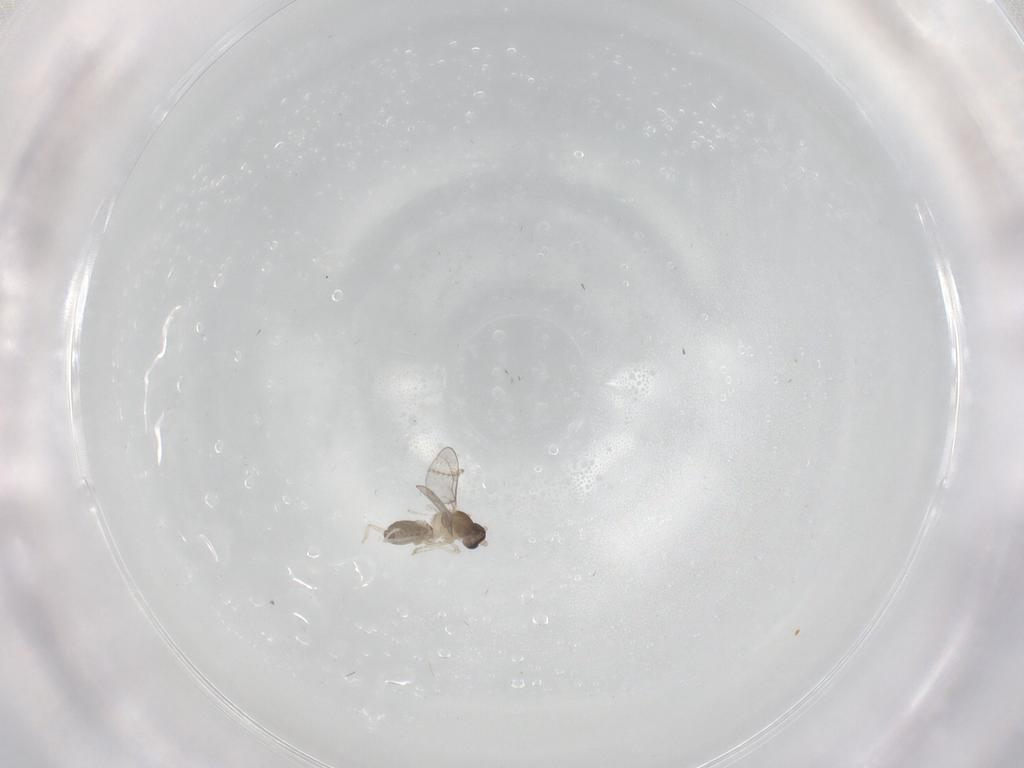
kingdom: Animalia
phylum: Arthropoda
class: Insecta
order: Diptera
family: Cecidomyiidae
